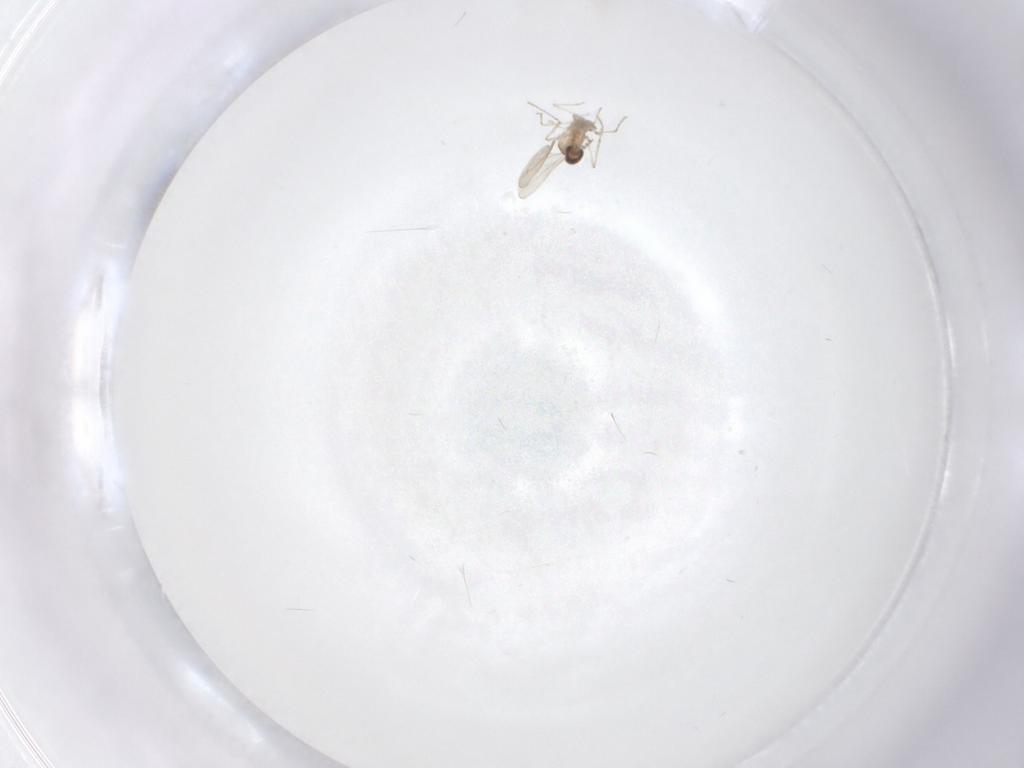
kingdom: Animalia
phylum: Arthropoda
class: Insecta
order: Diptera
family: Cecidomyiidae
